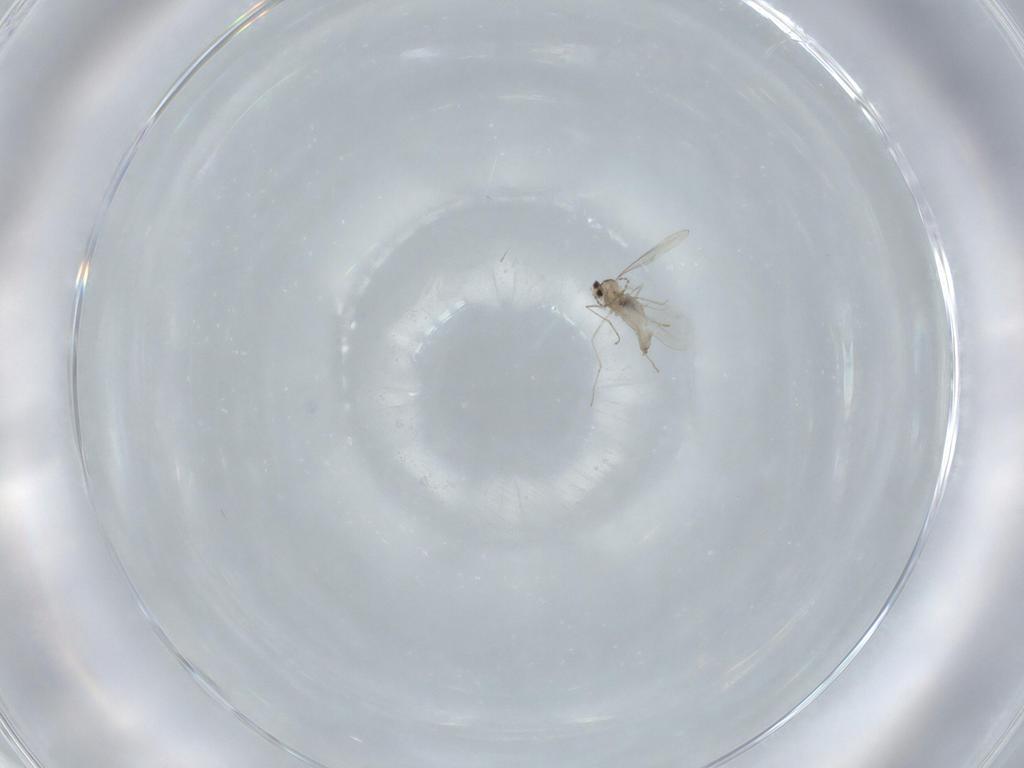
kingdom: Animalia
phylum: Arthropoda
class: Insecta
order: Diptera
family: Cecidomyiidae
